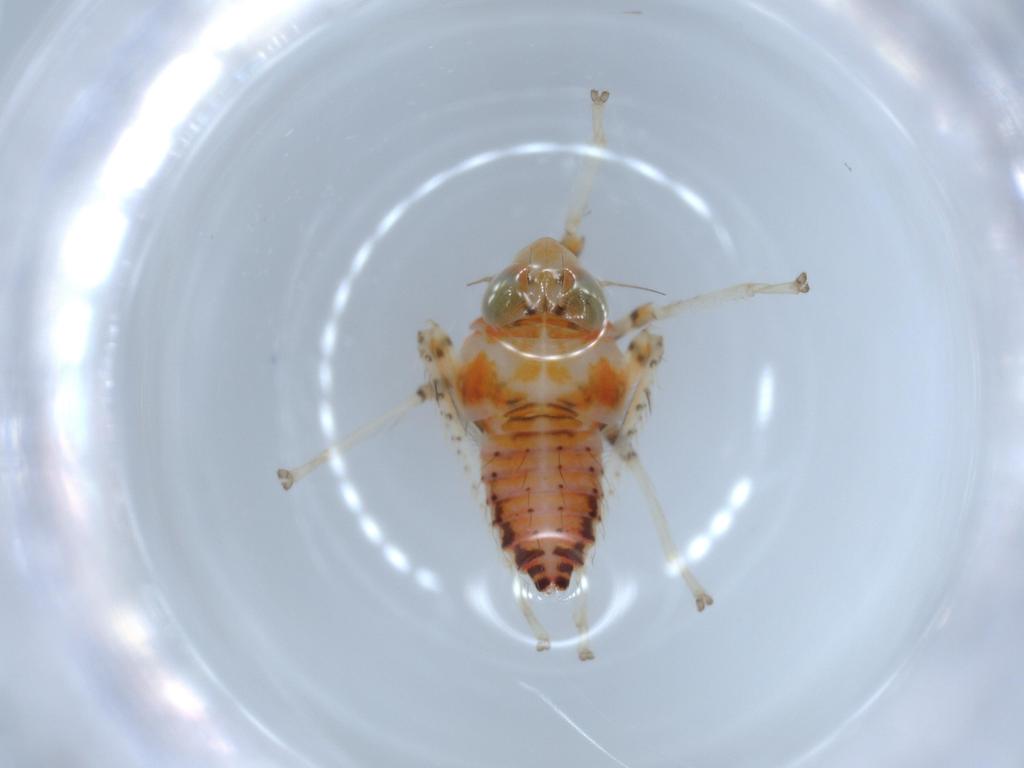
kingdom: Animalia
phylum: Arthropoda
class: Insecta
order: Hemiptera
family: Cicadellidae
